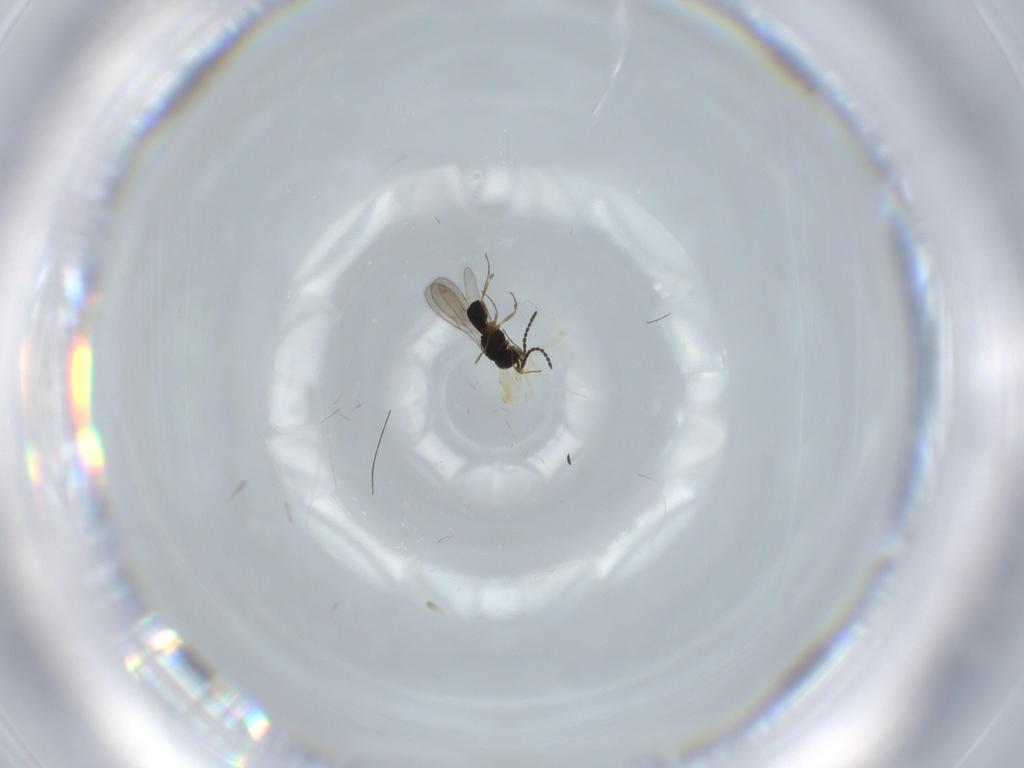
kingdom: Animalia
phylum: Arthropoda
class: Insecta
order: Hymenoptera
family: Scelionidae
